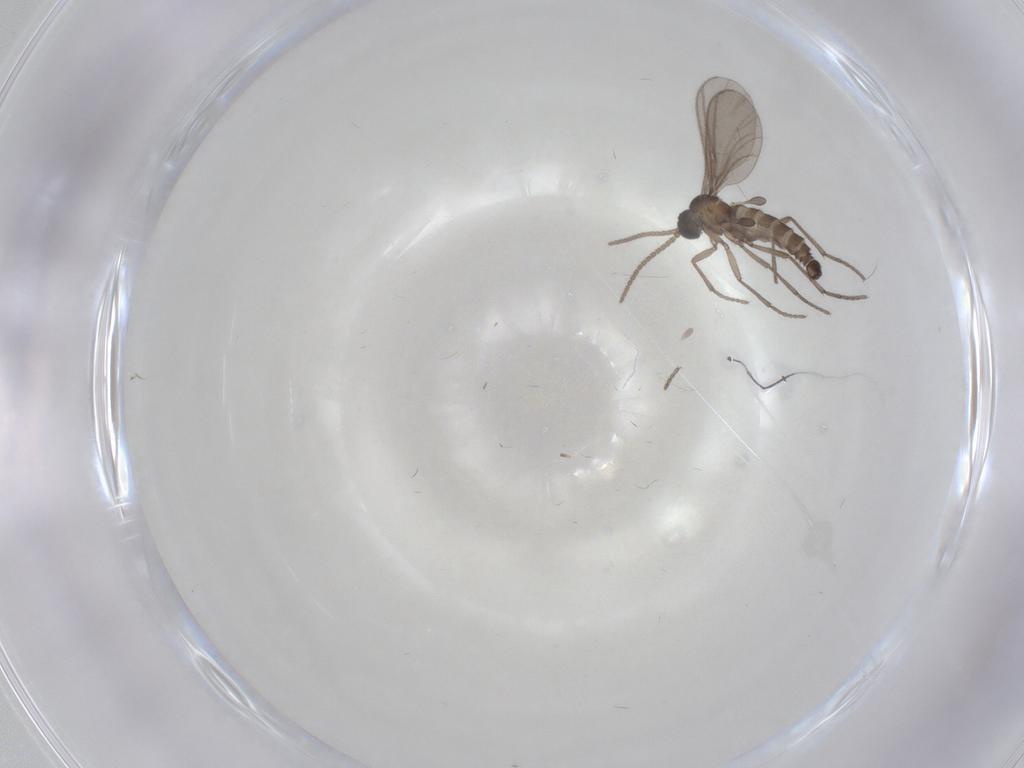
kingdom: Animalia
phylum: Arthropoda
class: Insecta
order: Diptera
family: Sciaridae
